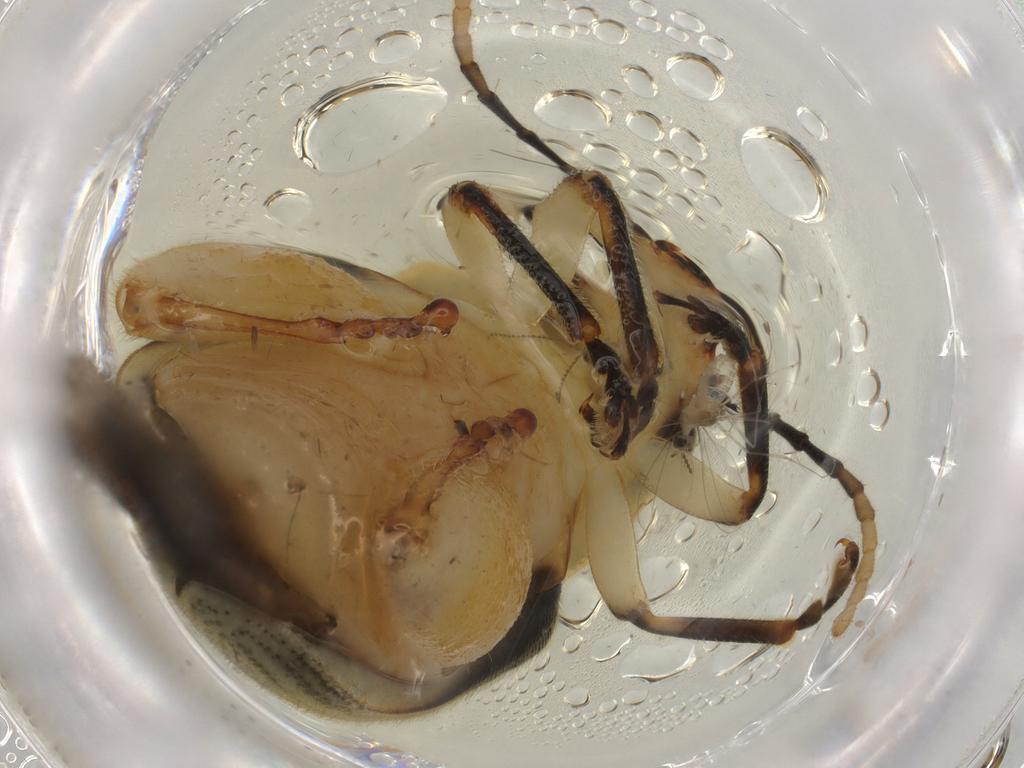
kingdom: Animalia
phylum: Arthropoda
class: Insecta
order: Coleoptera
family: Chrysomelidae
